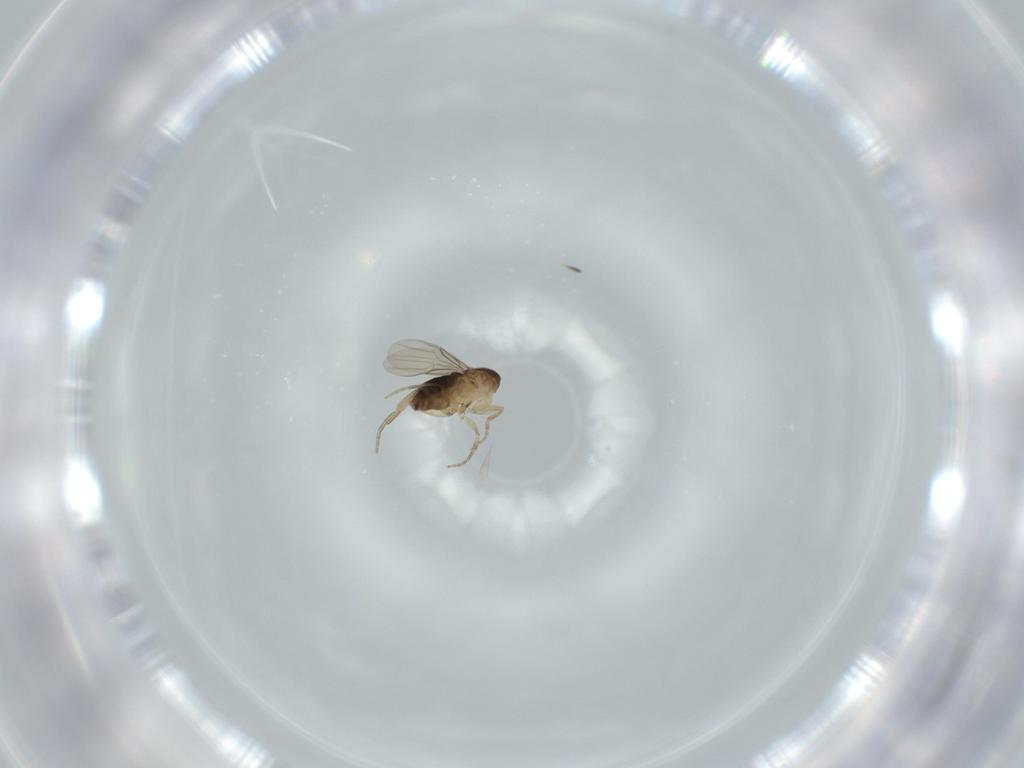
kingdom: Animalia
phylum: Arthropoda
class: Insecta
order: Diptera
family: Phoridae
